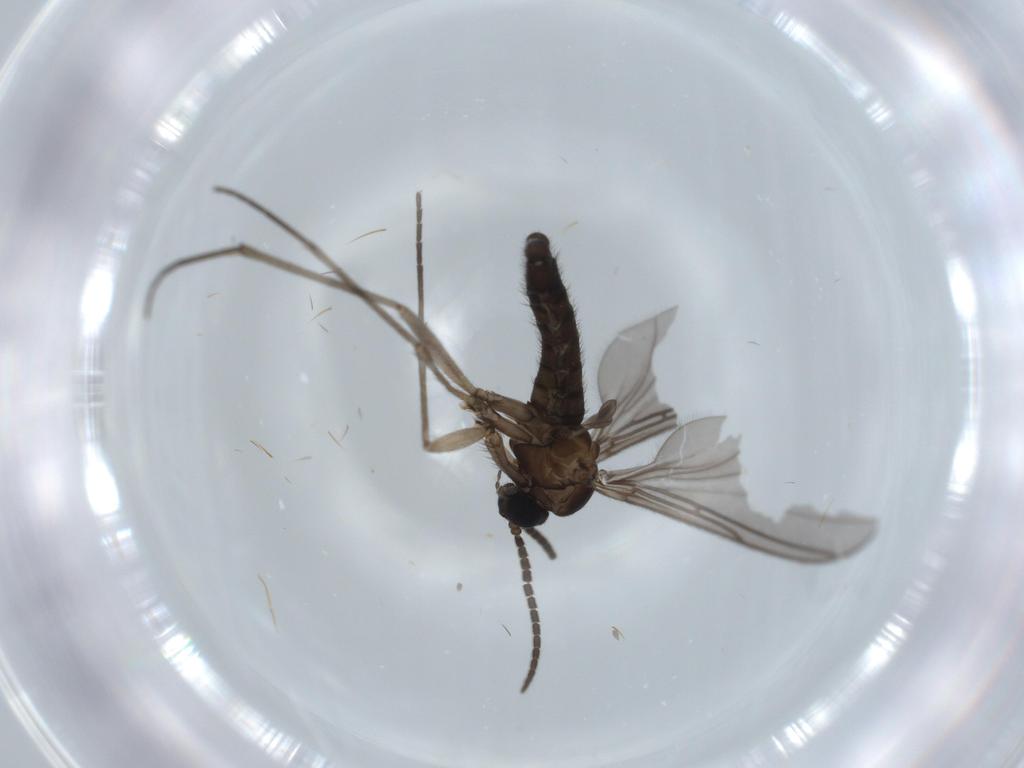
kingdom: Animalia
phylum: Arthropoda
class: Insecta
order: Diptera
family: Sciaridae
